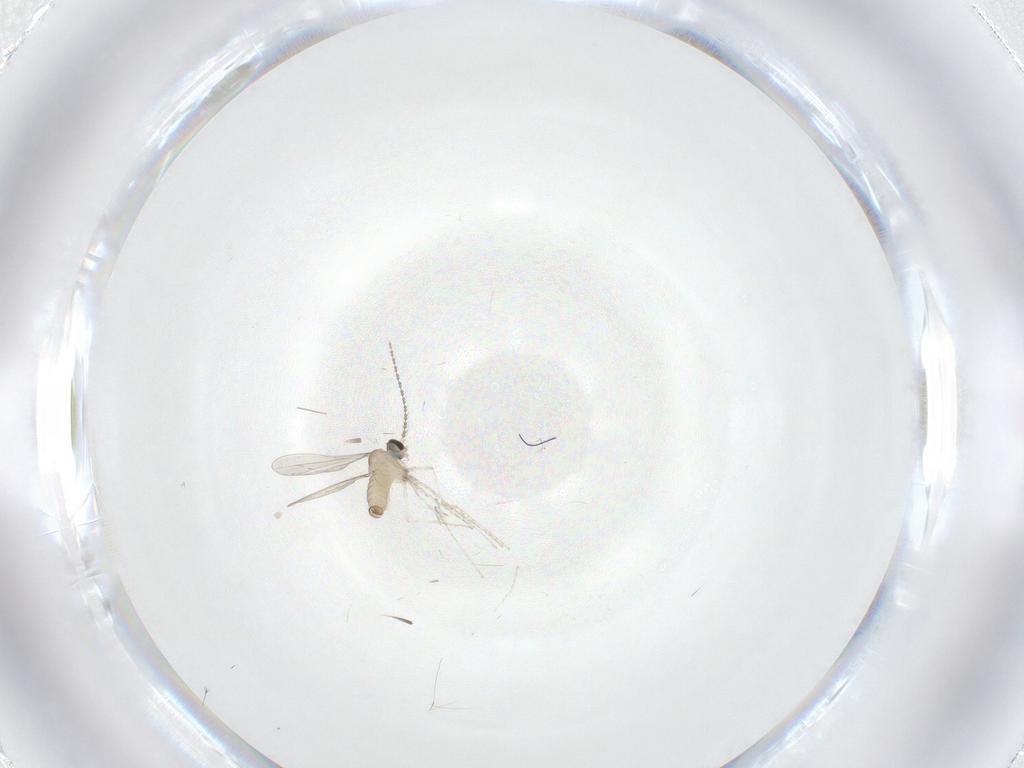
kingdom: Animalia
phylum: Arthropoda
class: Insecta
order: Diptera
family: Cecidomyiidae
